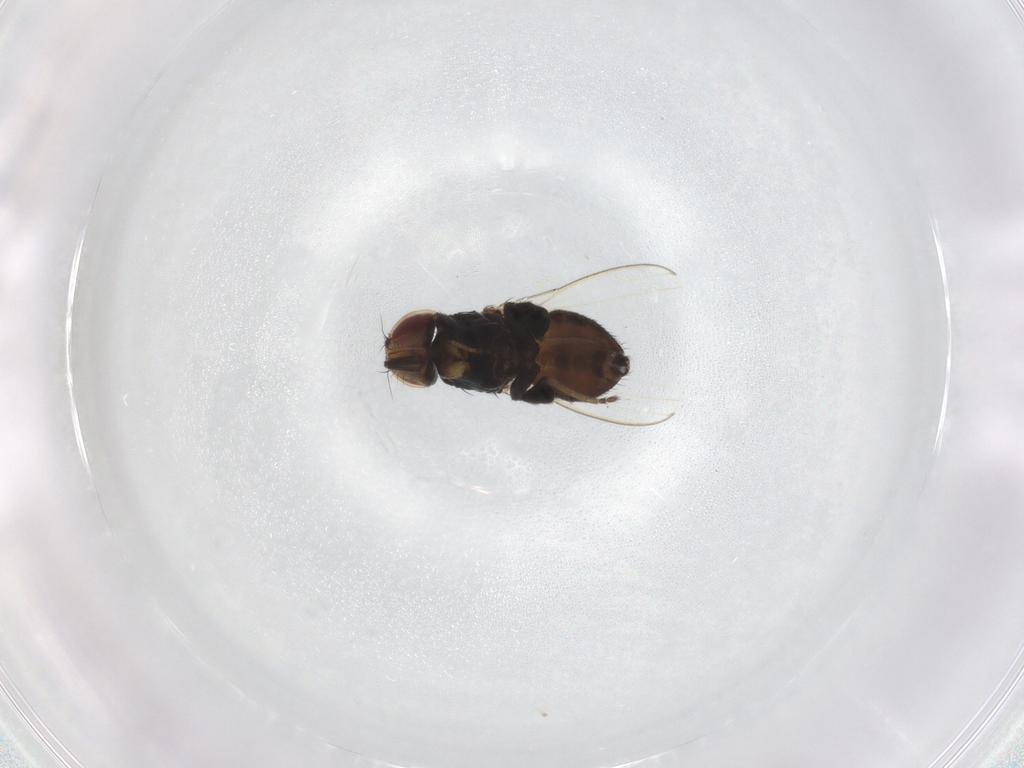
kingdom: Animalia
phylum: Arthropoda
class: Insecta
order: Diptera
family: Milichiidae
